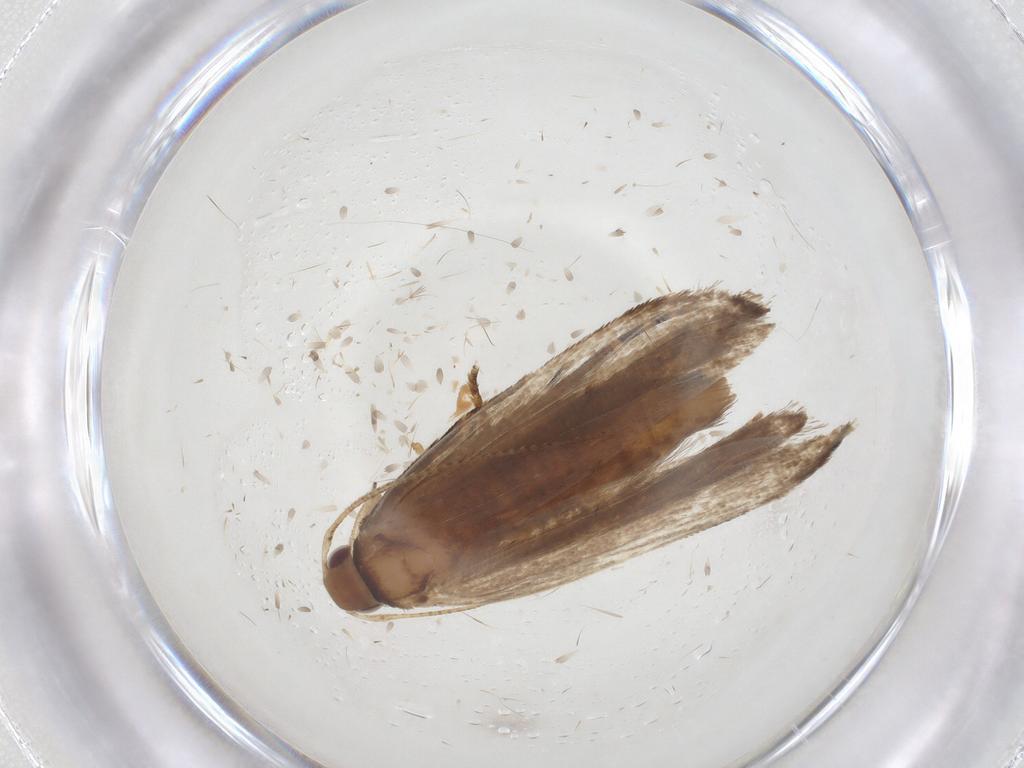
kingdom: Animalia
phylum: Arthropoda
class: Insecta
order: Lepidoptera
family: Gelechiidae
